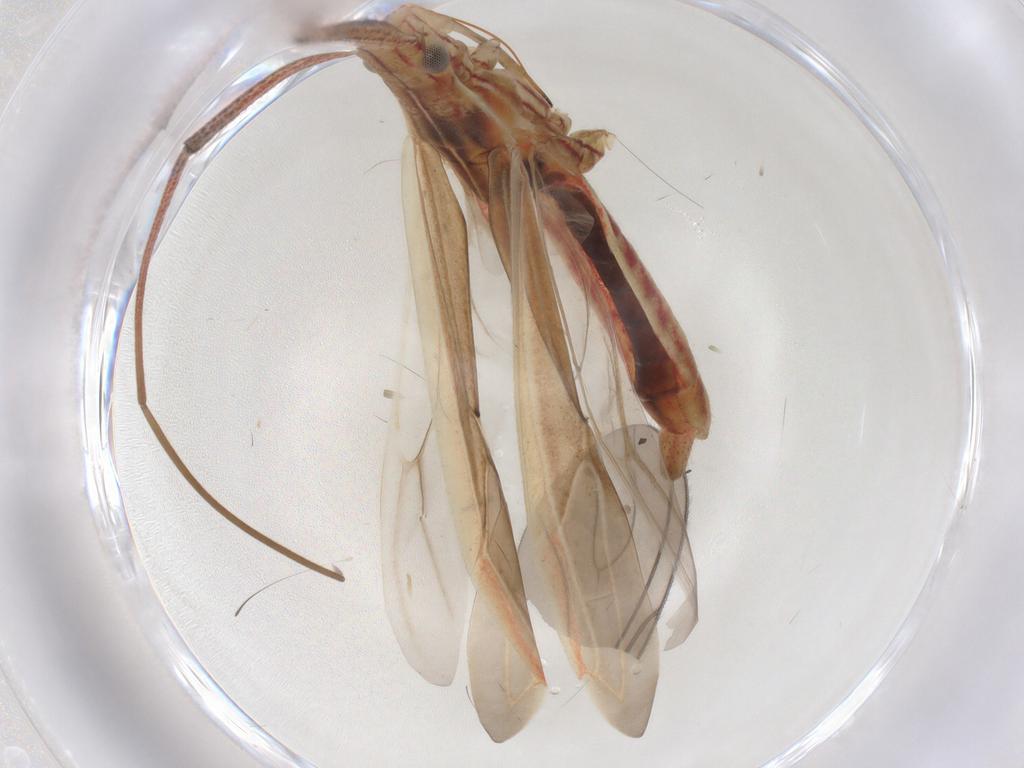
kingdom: Animalia
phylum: Arthropoda
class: Insecta
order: Hemiptera
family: Miridae
